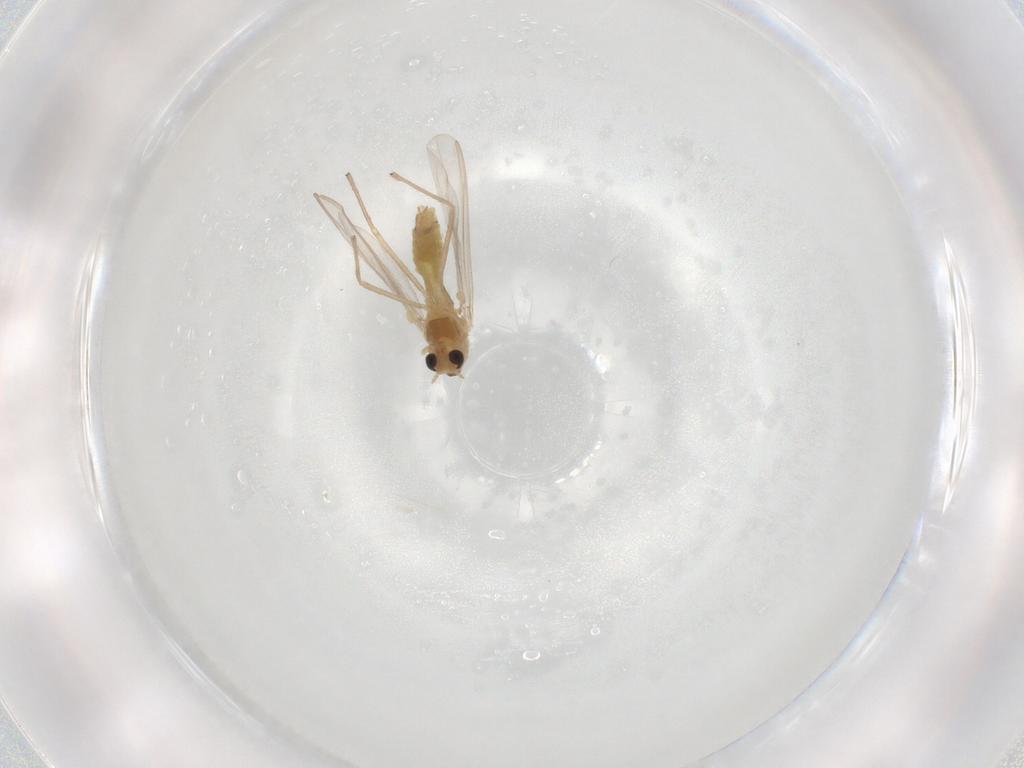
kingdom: Animalia
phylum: Arthropoda
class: Insecta
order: Diptera
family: Chironomidae
